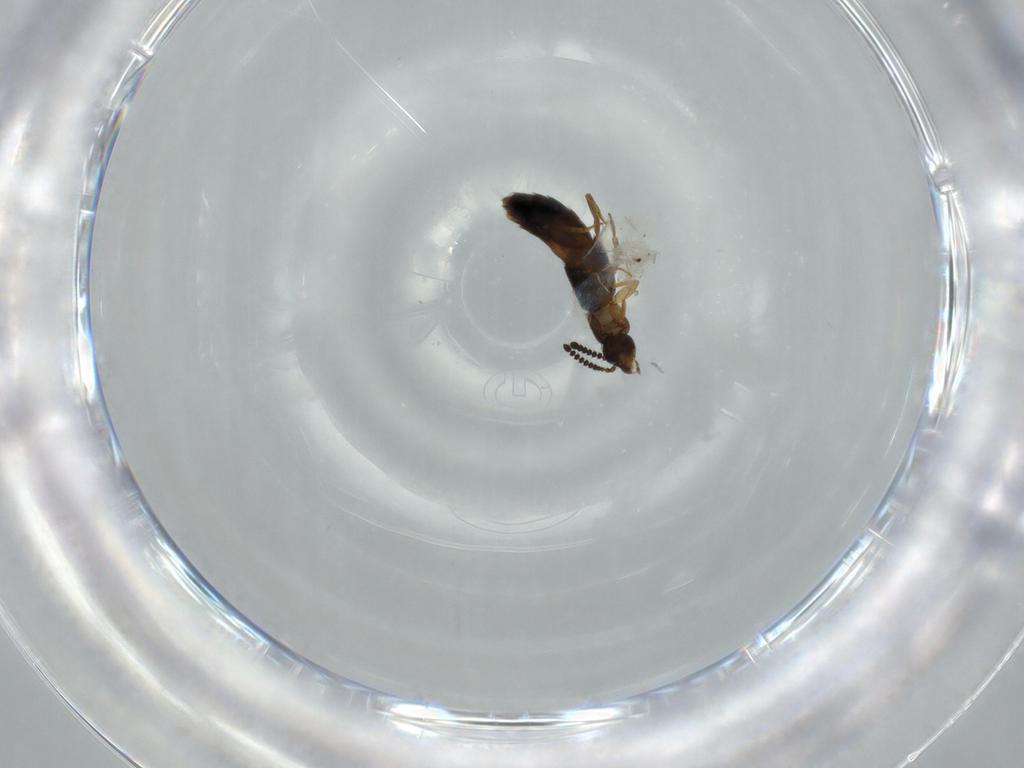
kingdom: Animalia
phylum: Arthropoda
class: Insecta
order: Coleoptera
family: Staphylinidae
